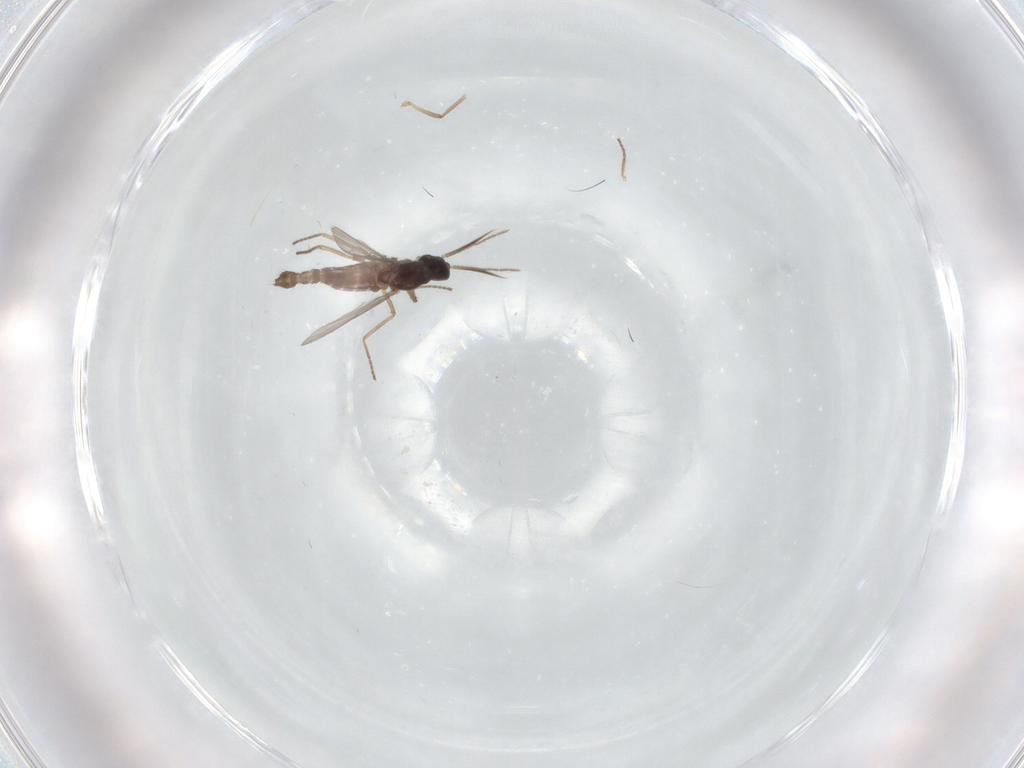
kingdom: Animalia
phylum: Arthropoda
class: Insecta
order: Diptera
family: Ceratopogonidae
